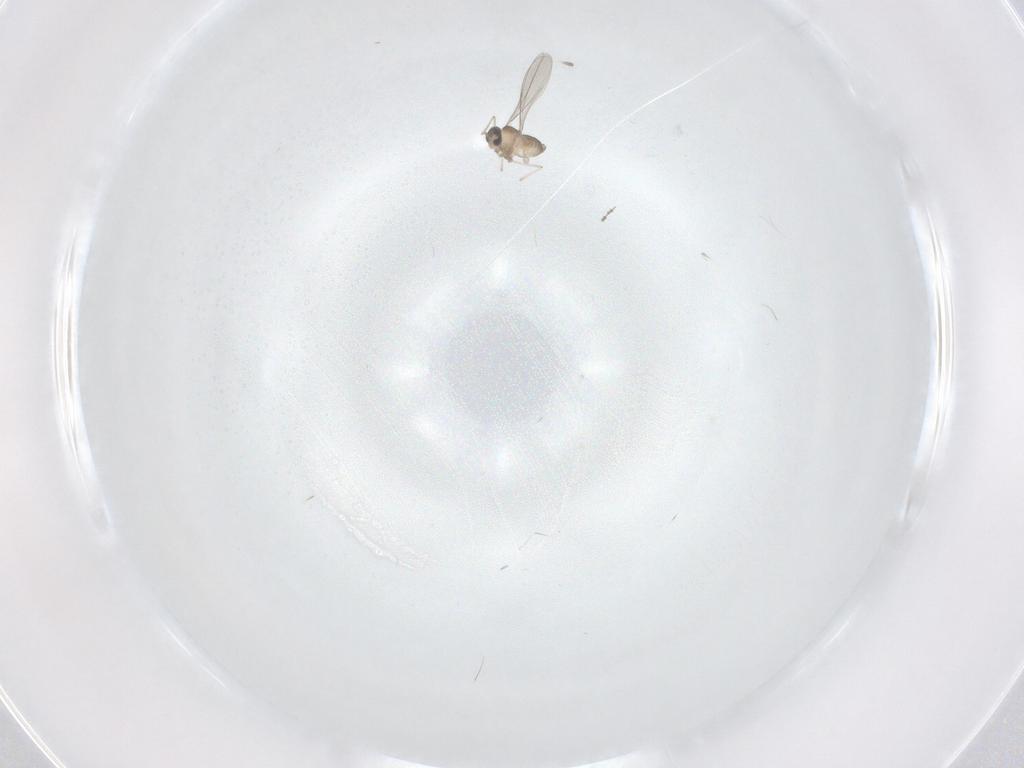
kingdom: Animalia
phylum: Arthropoda
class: Insecta
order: Diptera
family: Cecidomyiidae
